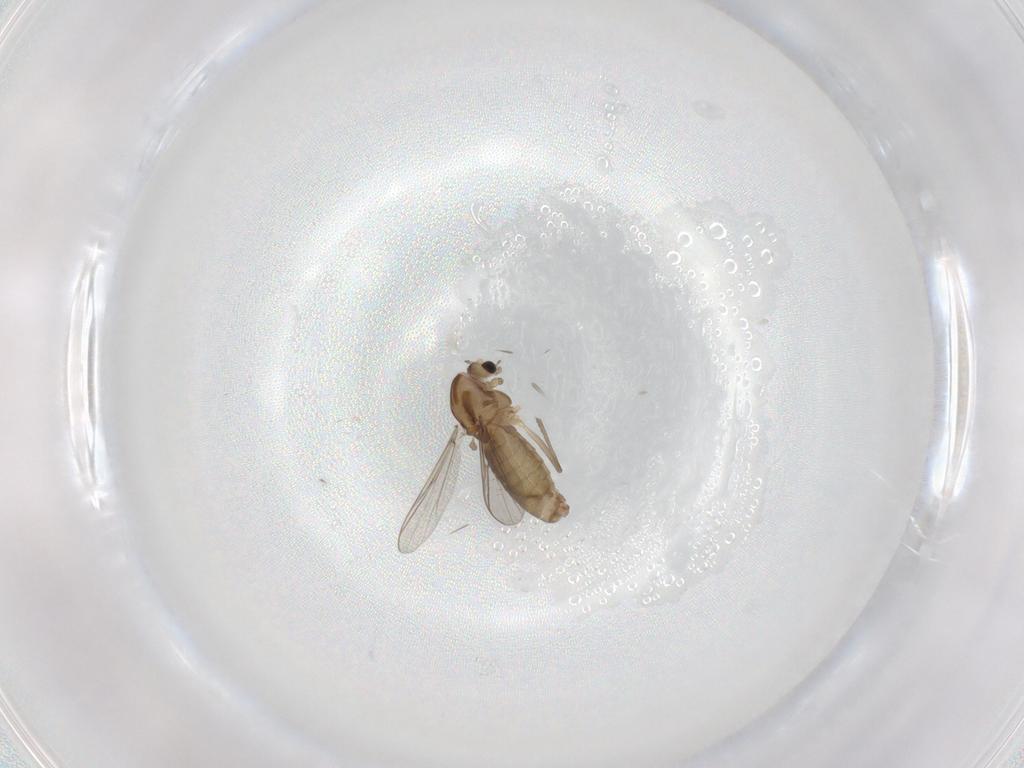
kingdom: Animalia
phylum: Arthropoda
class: Insecta
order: Diptera
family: Chironomidae
